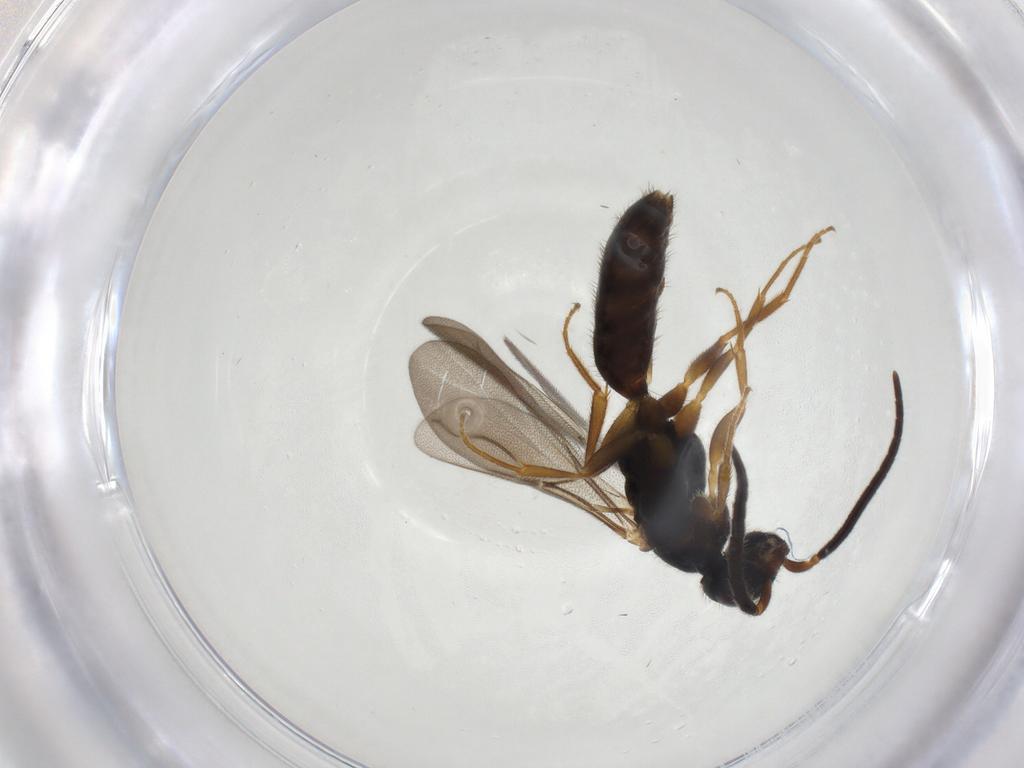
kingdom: Animalia
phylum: Arthropoda
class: Insecta
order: Hymenoptera
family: Bethylidae
